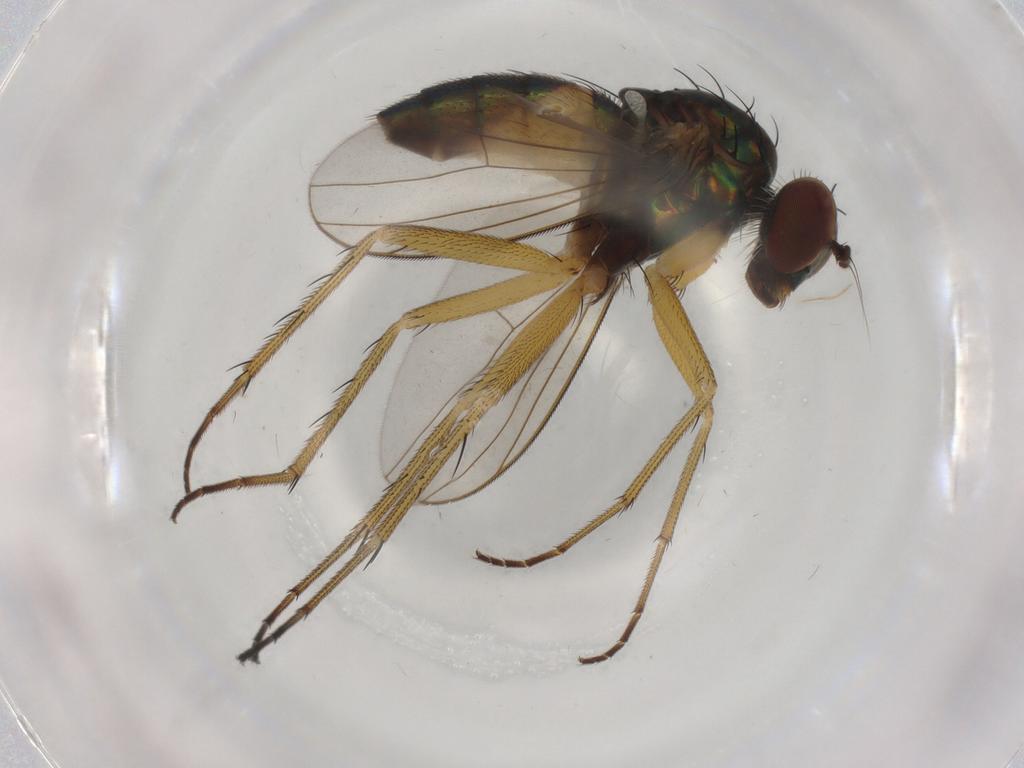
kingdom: Animalia
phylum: Arthropoda
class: Insecta
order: Diptera
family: Dolichopodidae
